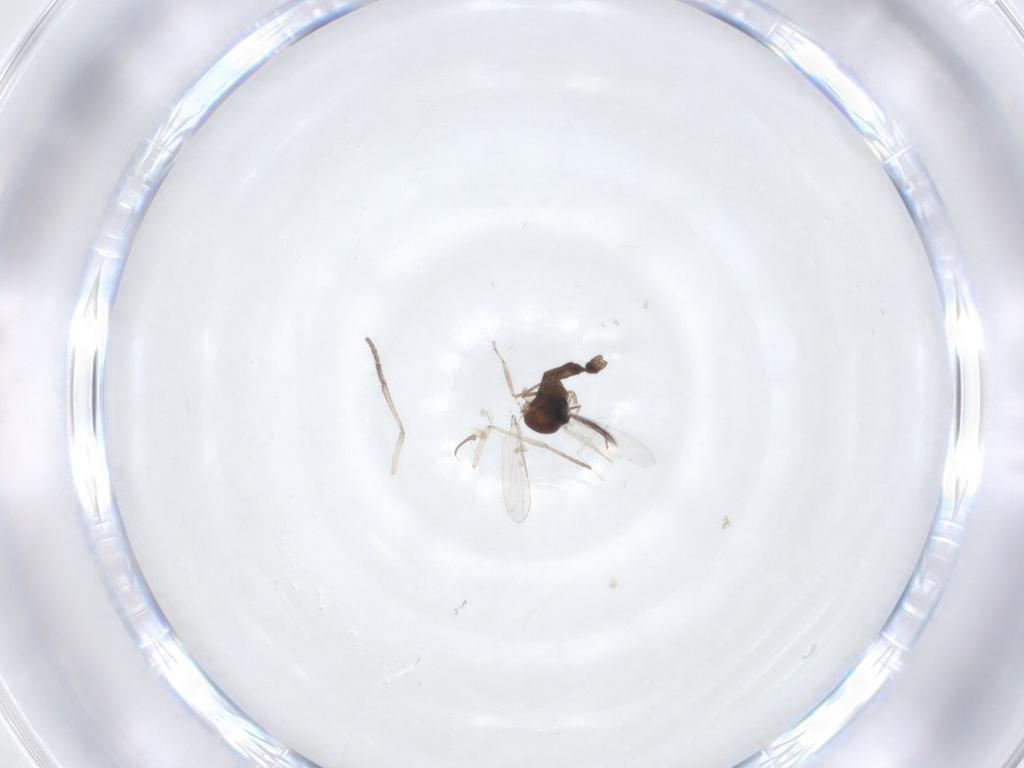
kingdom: Animalia
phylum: Arthropoda
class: Insecta
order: Diptera
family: Ceratopogonidae
